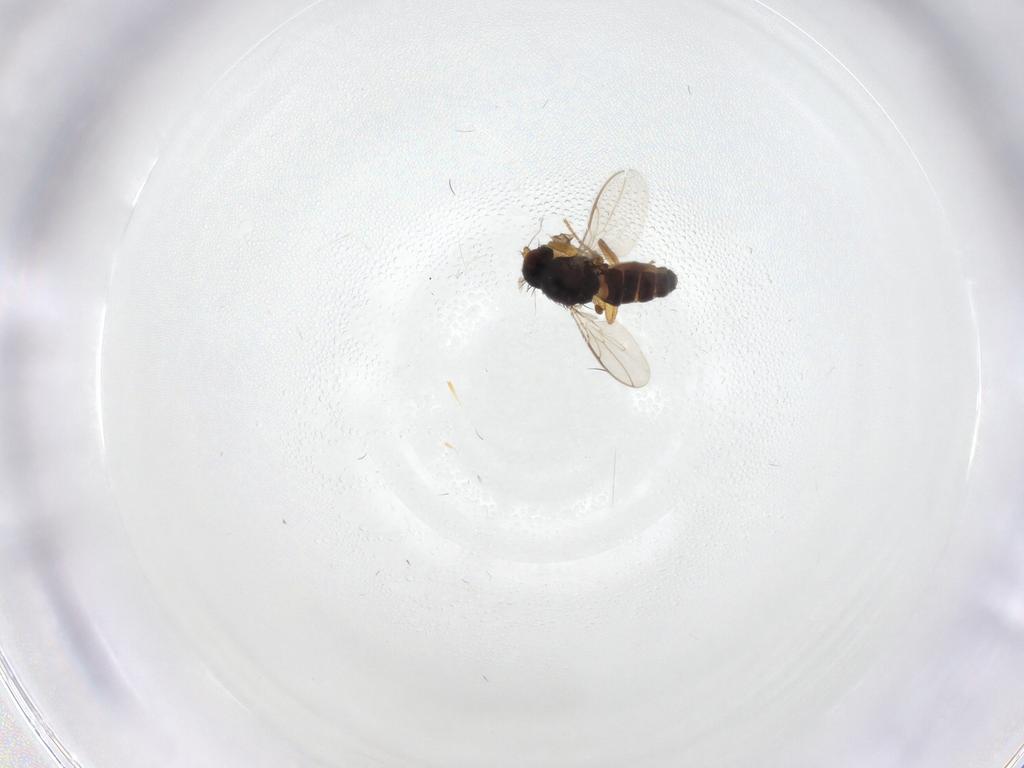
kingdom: Animalia
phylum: Arthropoda
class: Insecta
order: Diptera
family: Sphaeroceridae
